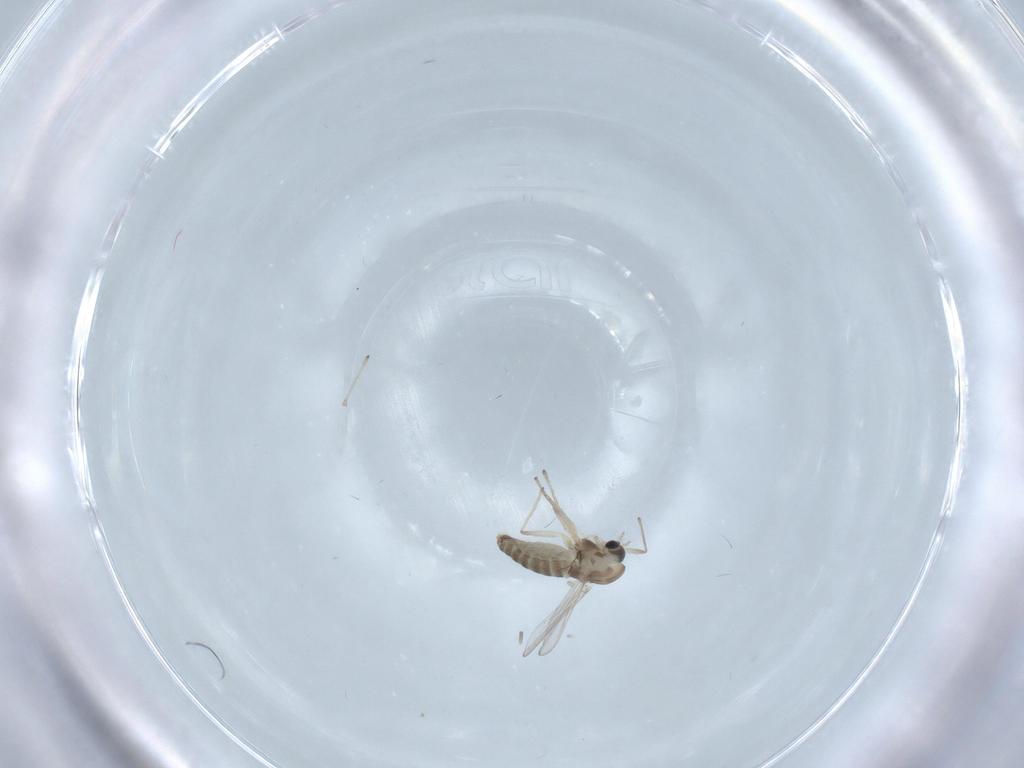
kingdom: Animalia
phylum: Arthropoda
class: Insecta
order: Diptera
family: Chironomidae
